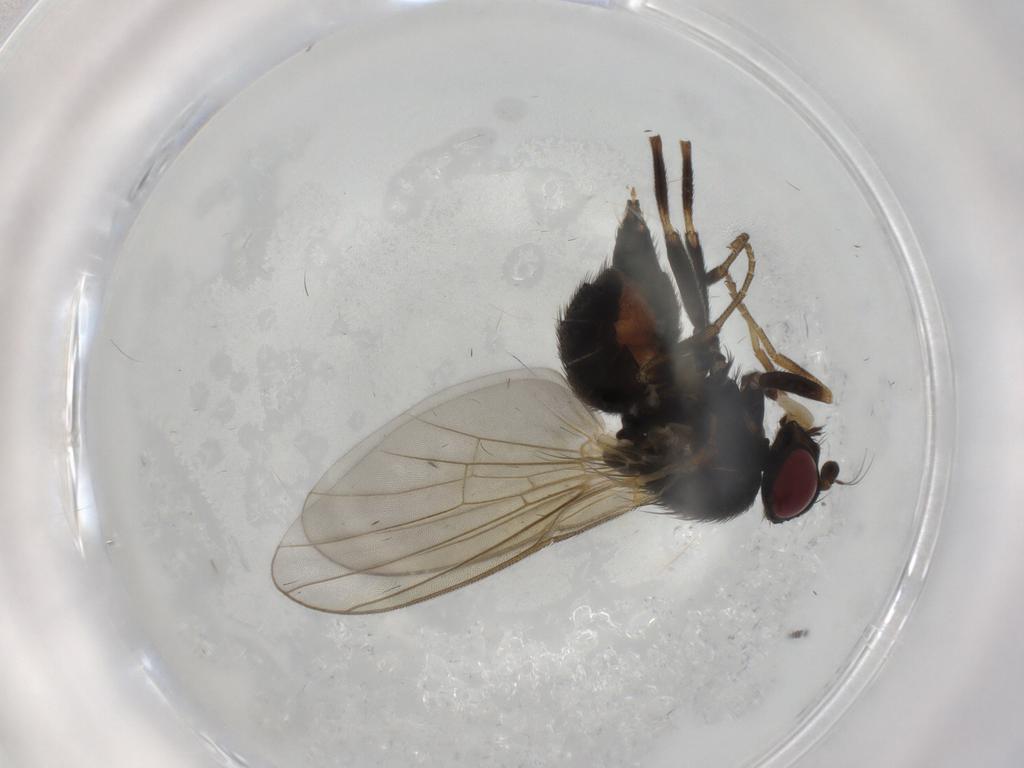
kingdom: Animalia
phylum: Arthropoda
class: Insecta
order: Diptera
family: Agromyzidae
